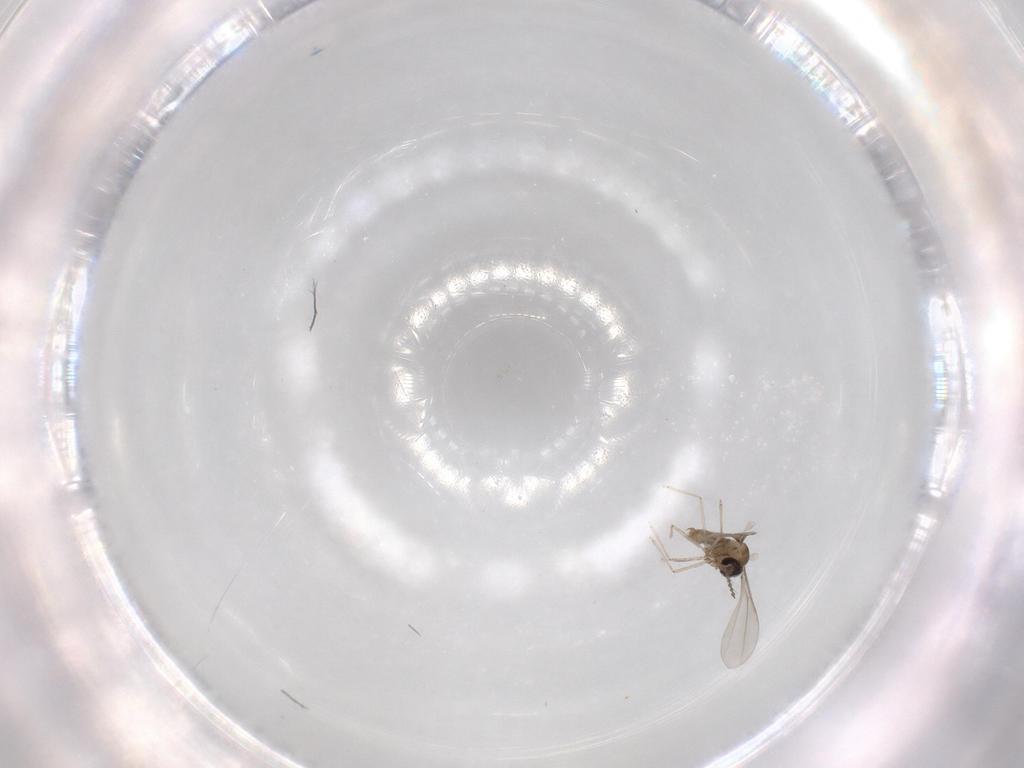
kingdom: Animalia
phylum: Arthropoda
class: Insecta
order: Diptera
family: Cecidomyiidae
